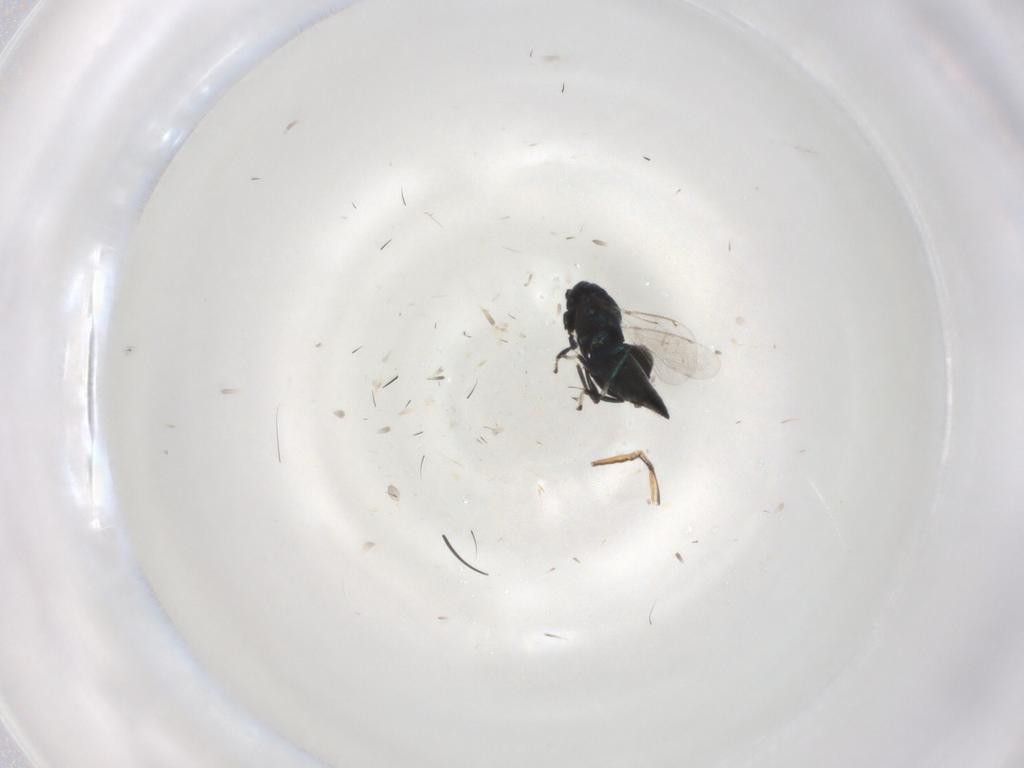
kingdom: Animalia
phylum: Arthropoda
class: Insecta
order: Hymenoptera
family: Eulophidae
